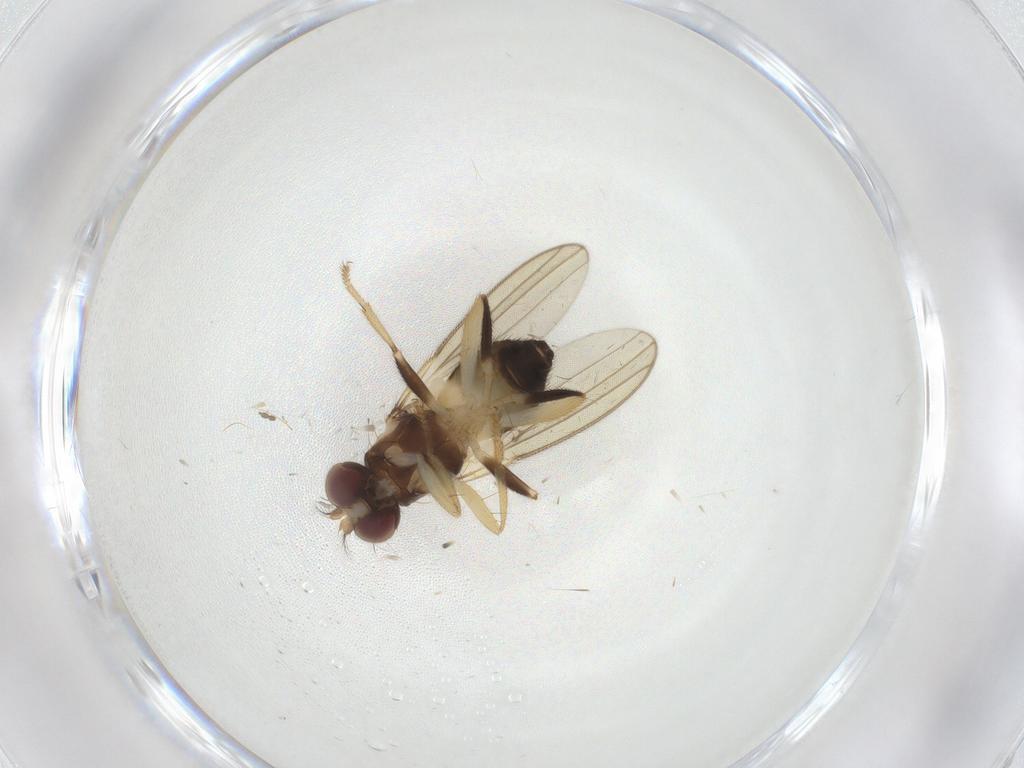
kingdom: Animalia
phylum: Arthropoda
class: Insecta
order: Diptera
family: Periscelididae
